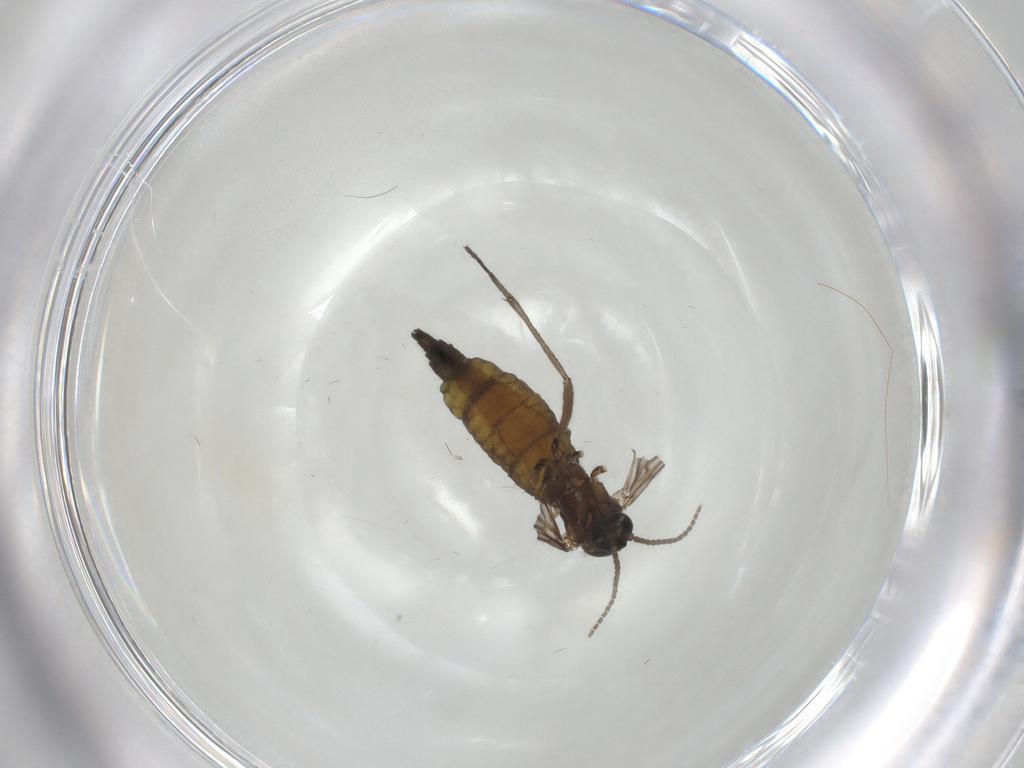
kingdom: Animalia
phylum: Arthropoda
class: Insecta
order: Diptera
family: Sciaridae
